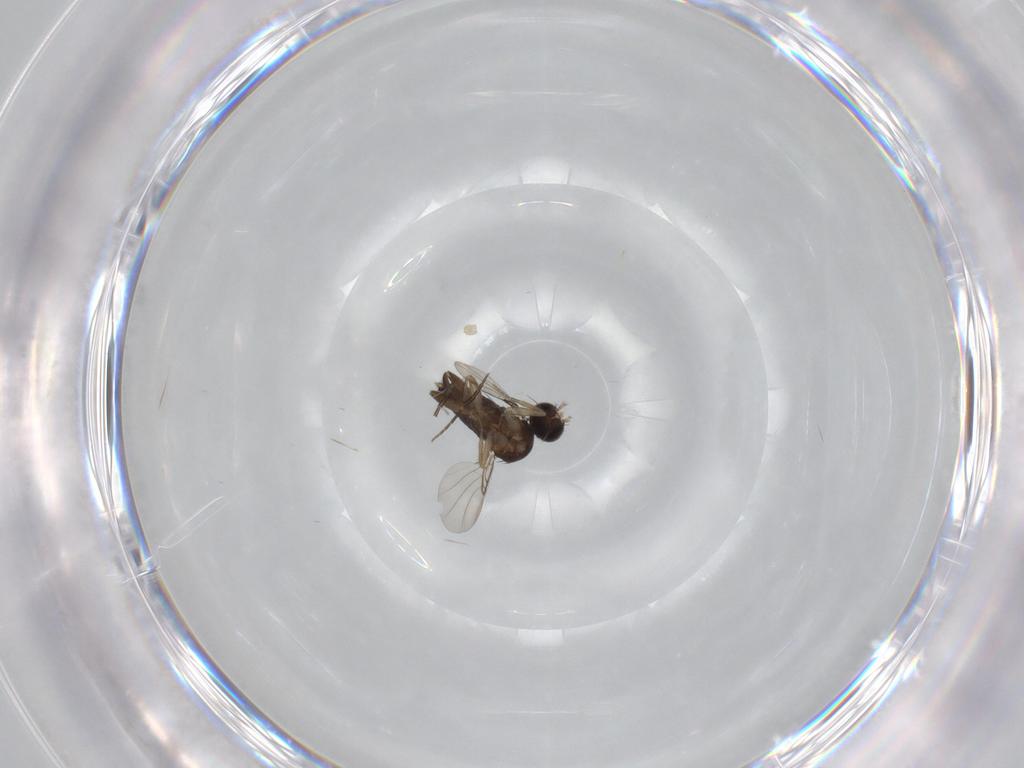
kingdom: Animalia
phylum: Arthropoda
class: Insecta
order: Diptera
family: Phoridae
